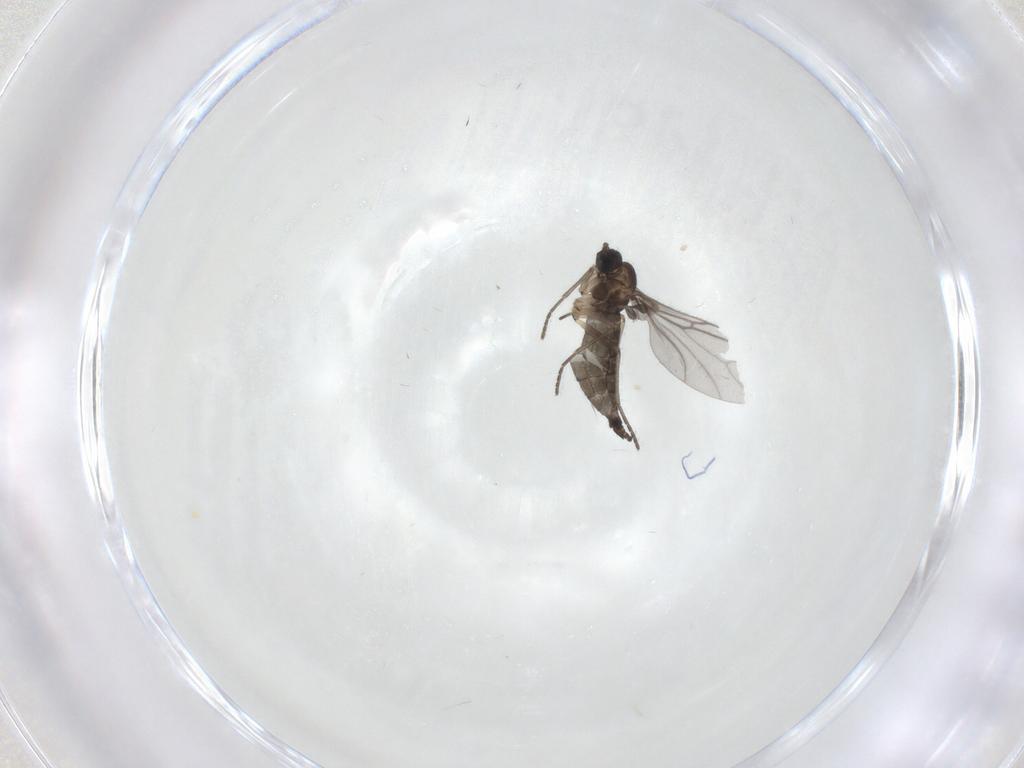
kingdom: Animalia
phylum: Arthropoda
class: Insecta
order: Diptera
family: Sciaridae
